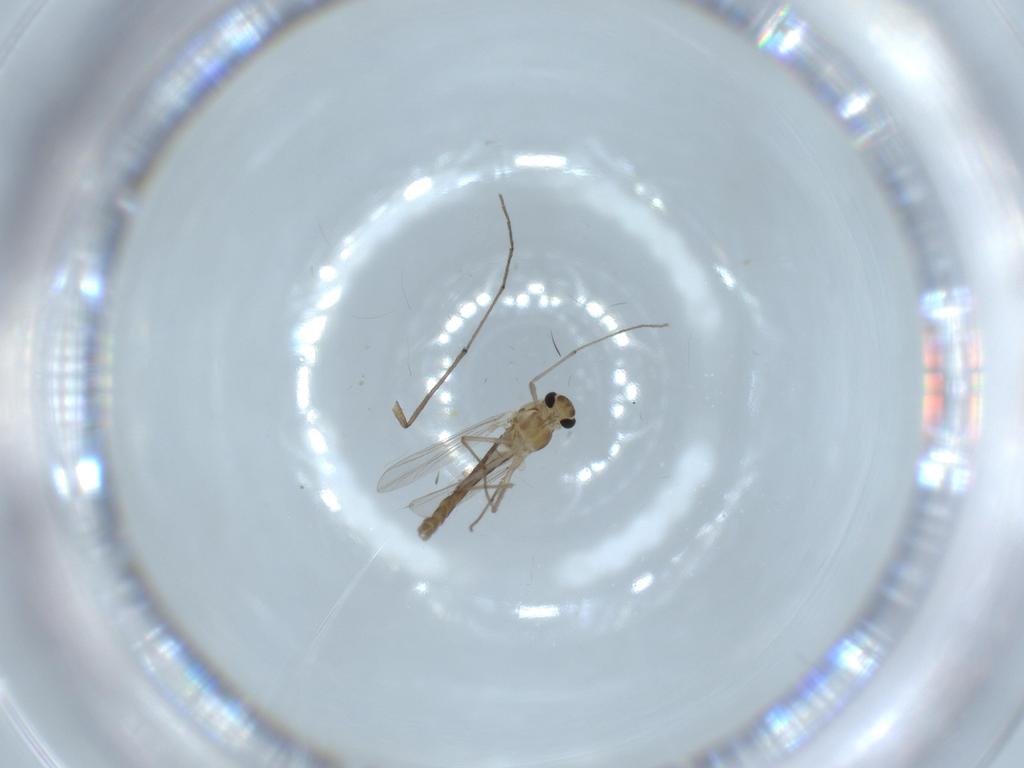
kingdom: Animalia
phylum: Arthropoda
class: Insecta
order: Diptera
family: Chironomidae
